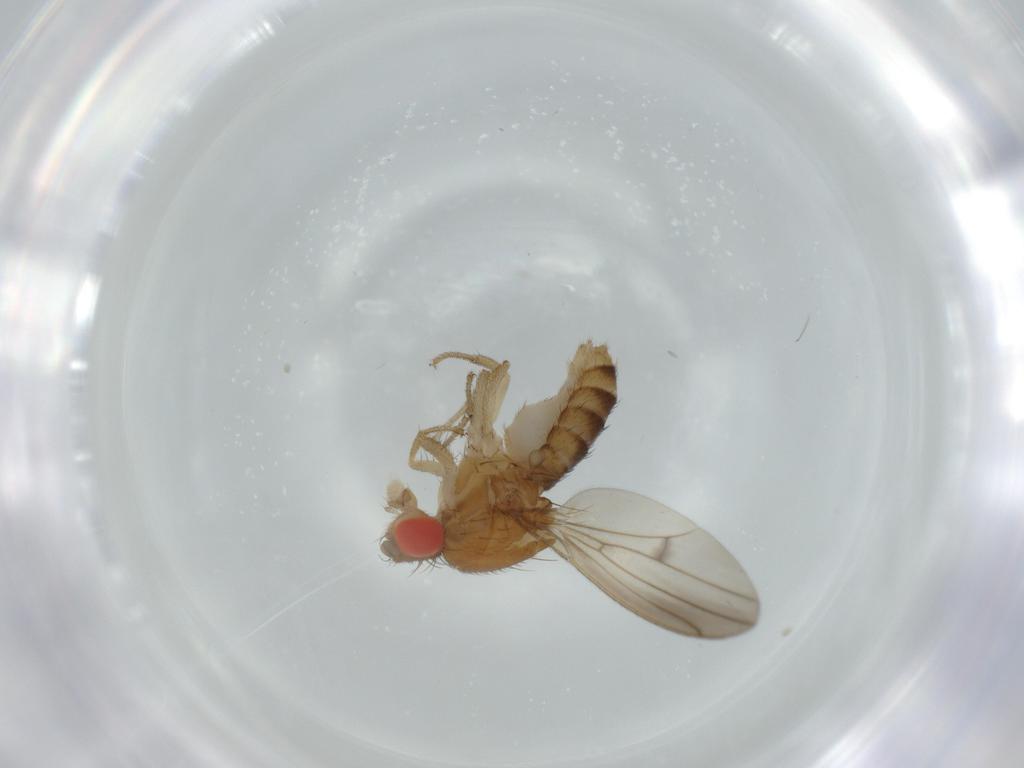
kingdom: Animalia
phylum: Arthropoda
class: Insecta
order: Diptera
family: Drosophilidae
